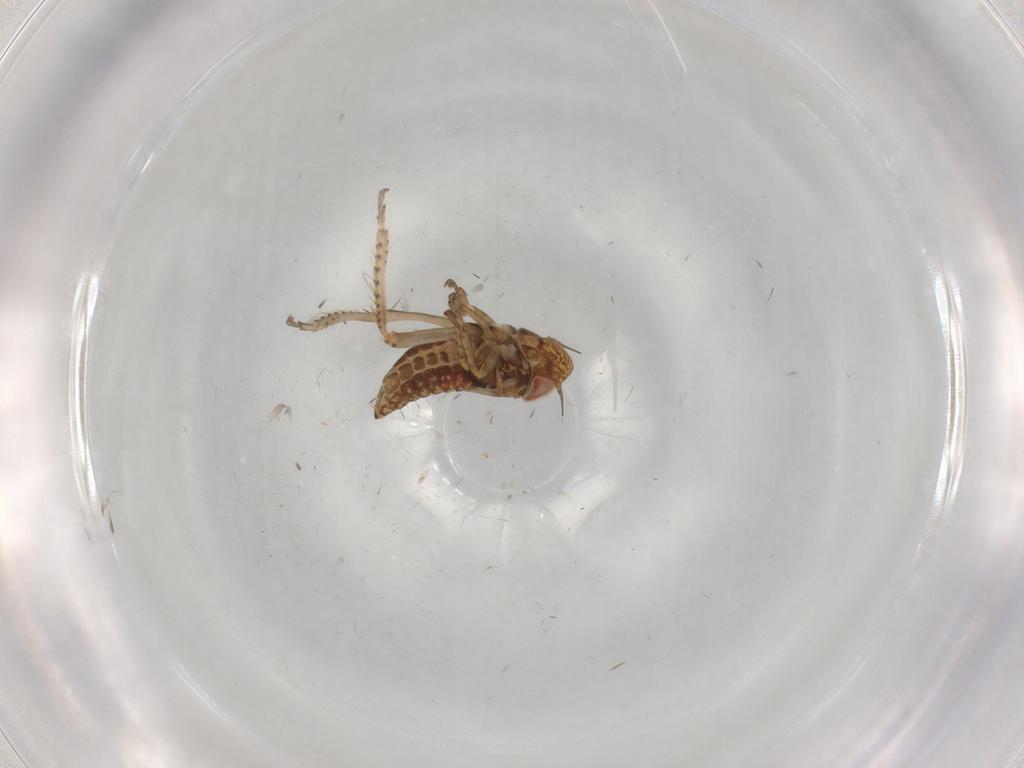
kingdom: Animalia
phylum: Arthropoda
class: Insecta
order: Hemiptera
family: Cicadellidae
